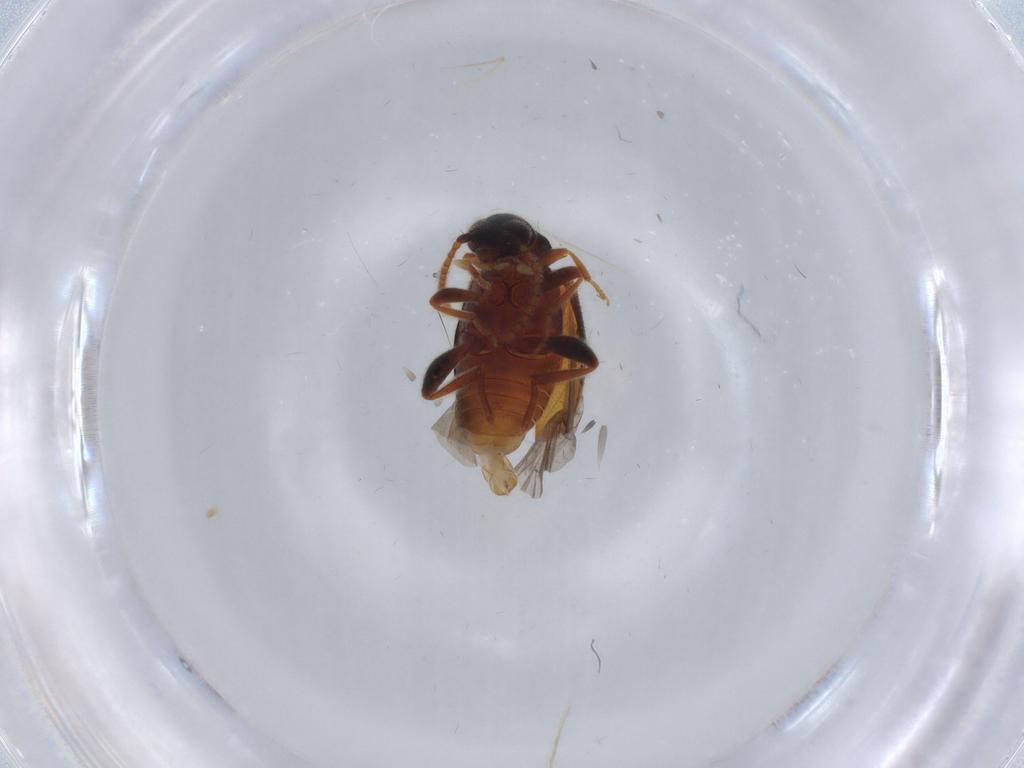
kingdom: Animalia
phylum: Arthropoda
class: Insecta
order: Coleoptera
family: Aderidae
